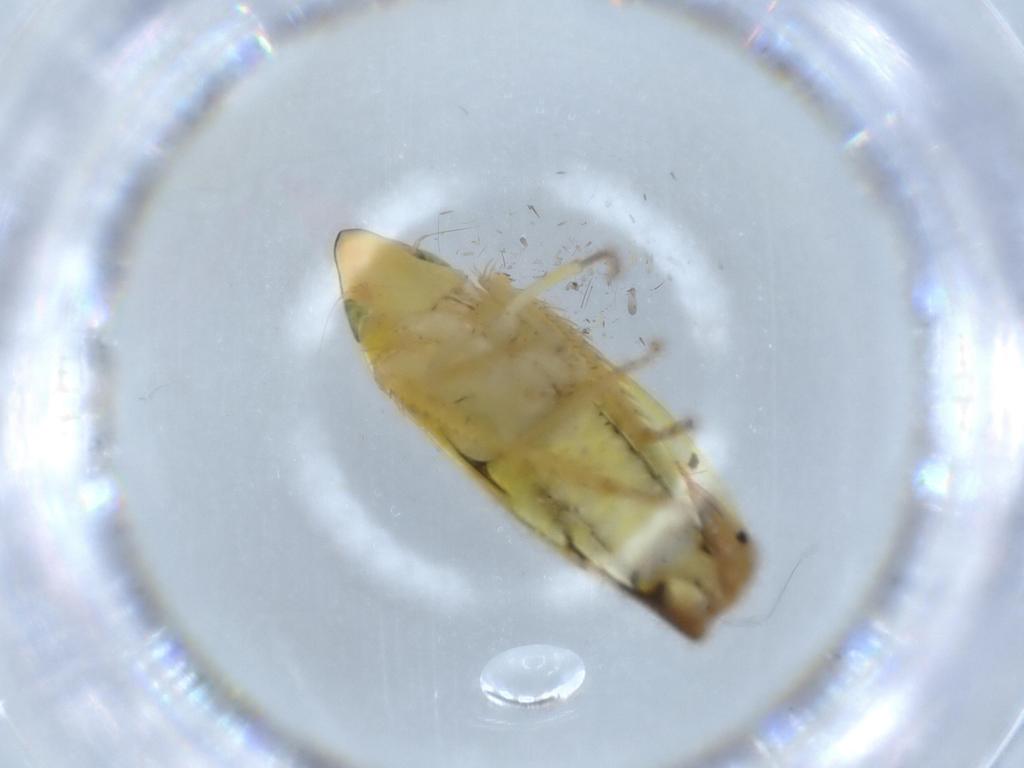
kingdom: Animalia
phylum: Arthropoda
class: Insecta
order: Hemiptera
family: Cicadellidae
